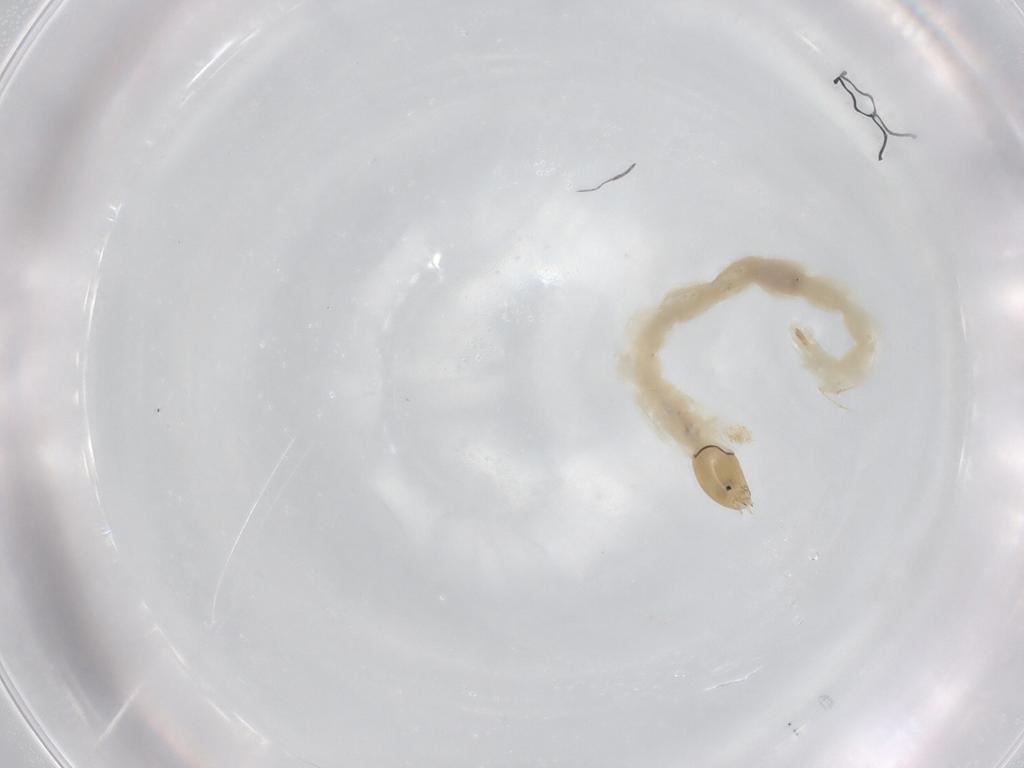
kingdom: Animalia
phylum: Arthropoda
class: Insecta
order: Diptera
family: Chironomidae
